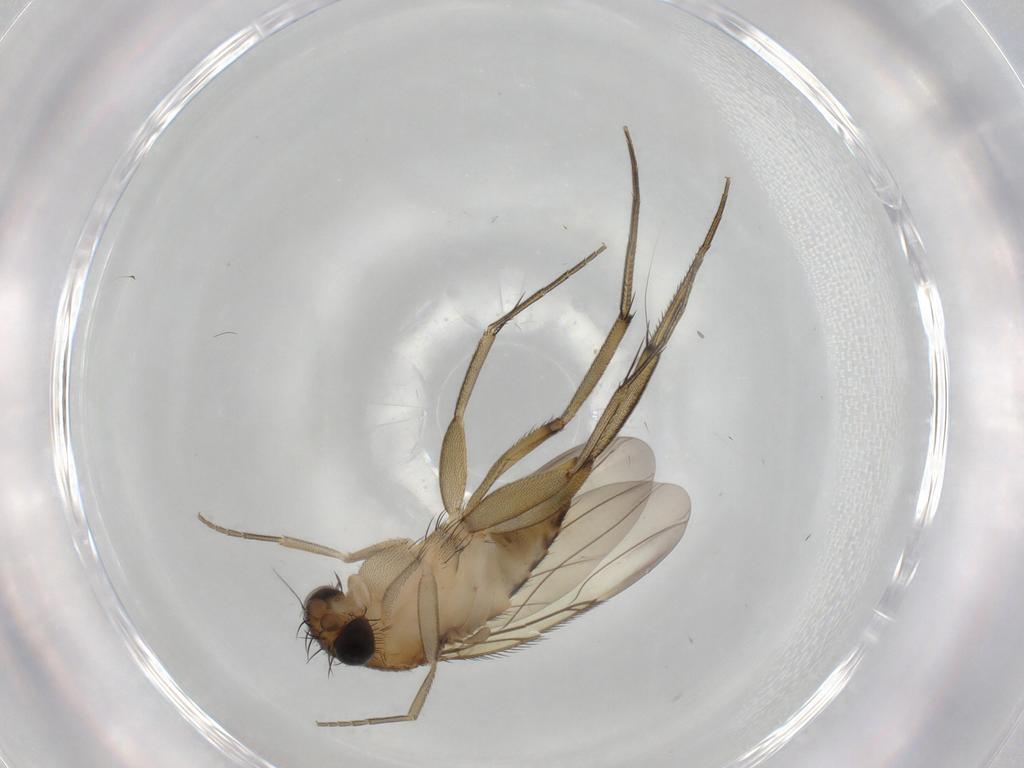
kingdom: Animalia
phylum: Arthropoda
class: Insecta
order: Diptera
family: Phoridae
